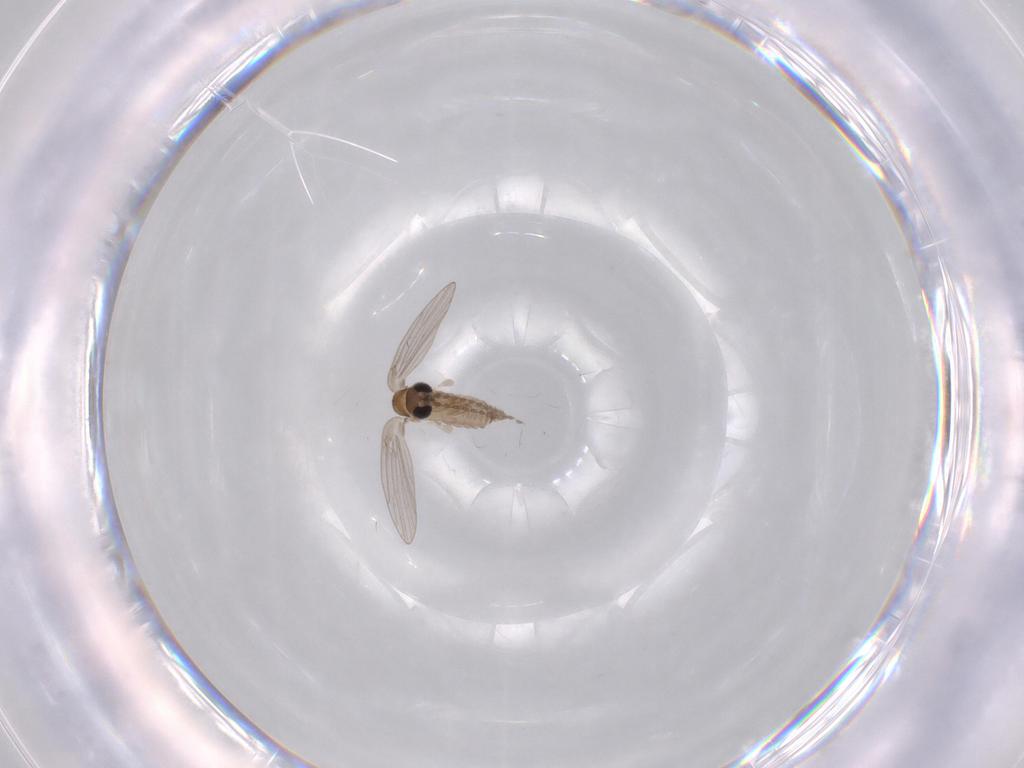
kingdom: Animalia
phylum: Arthropoda
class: Insecta
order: Diptera
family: Psychodidae
